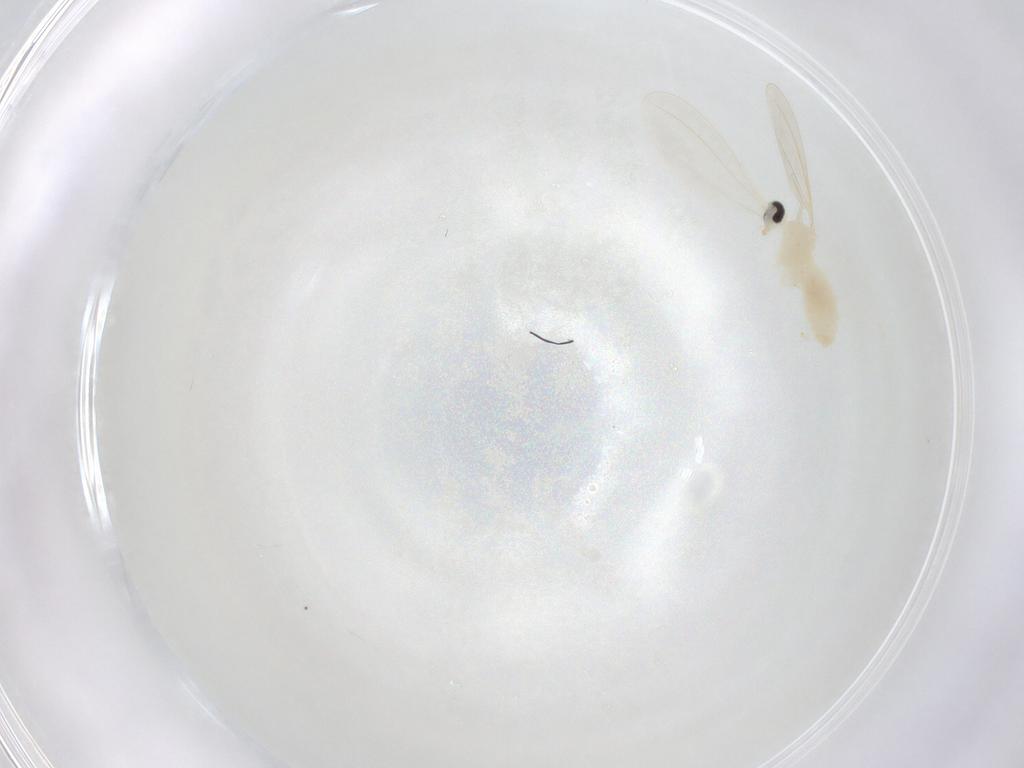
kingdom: Animalia
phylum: Arthropoda
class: Insecta
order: Diptera
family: Cecidomyiidae
